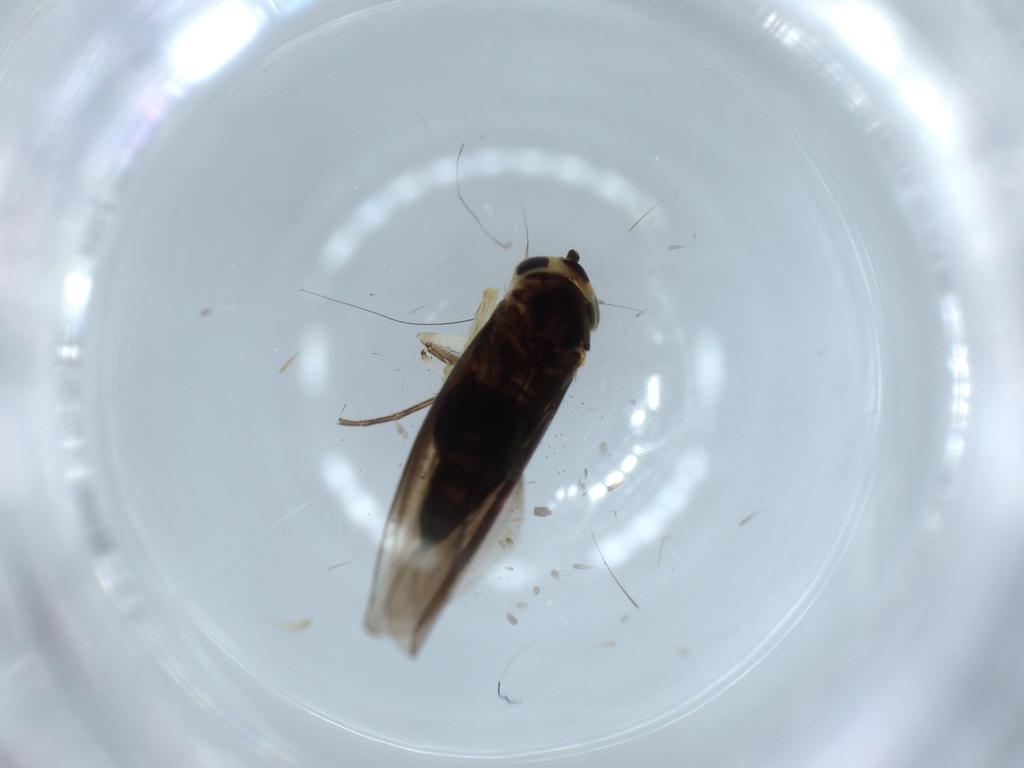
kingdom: Animalia
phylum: Arthropoda
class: Insecta
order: Hemiptera
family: Cicadellidae
